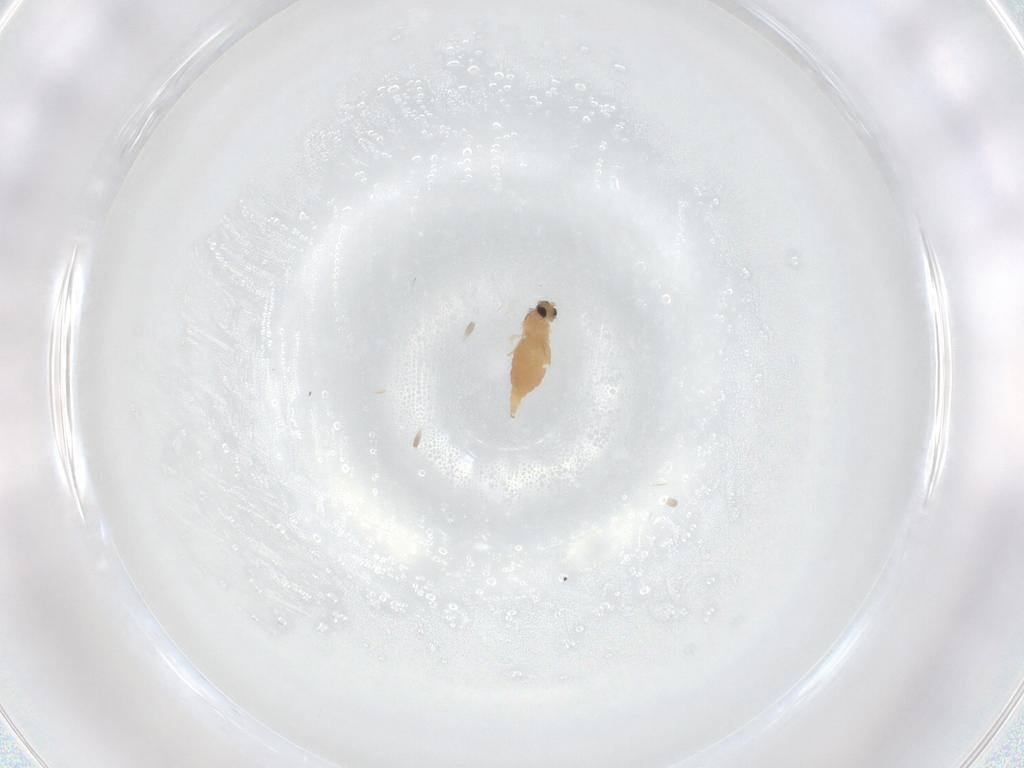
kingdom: Animalia
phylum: Arthropoda
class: Insecta
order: Diptera
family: Cecidomyiidae
